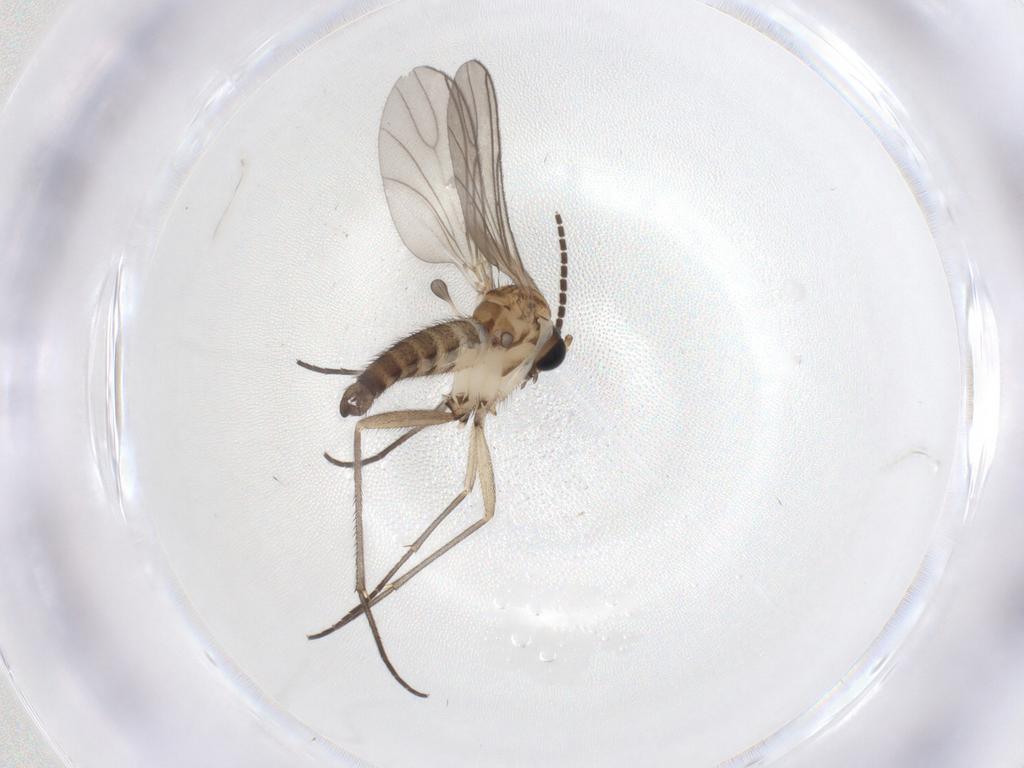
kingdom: Animalia
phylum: Arthropoda
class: Insecta
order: Diptera
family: Sciaridae
